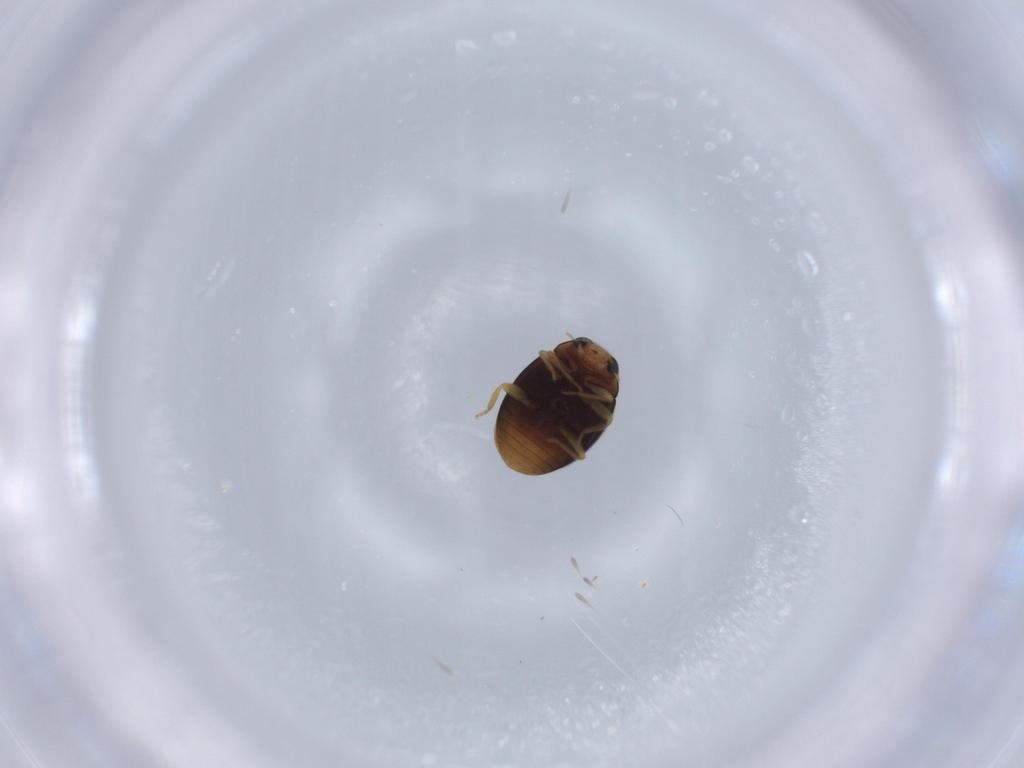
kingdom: Animalia
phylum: Arthropoda
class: Insecta
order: Coleoptera
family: Coccinellidae
